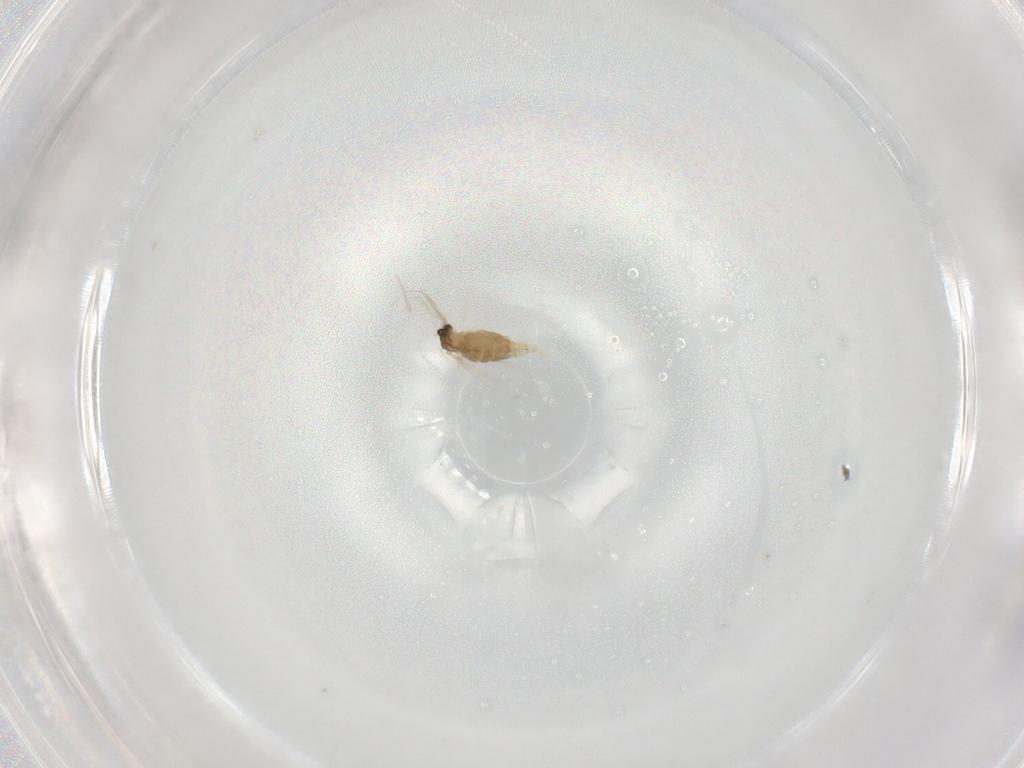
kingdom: Animalia
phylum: Arthropoda
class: Insecta
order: Diptera
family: Cecidomyiidae
